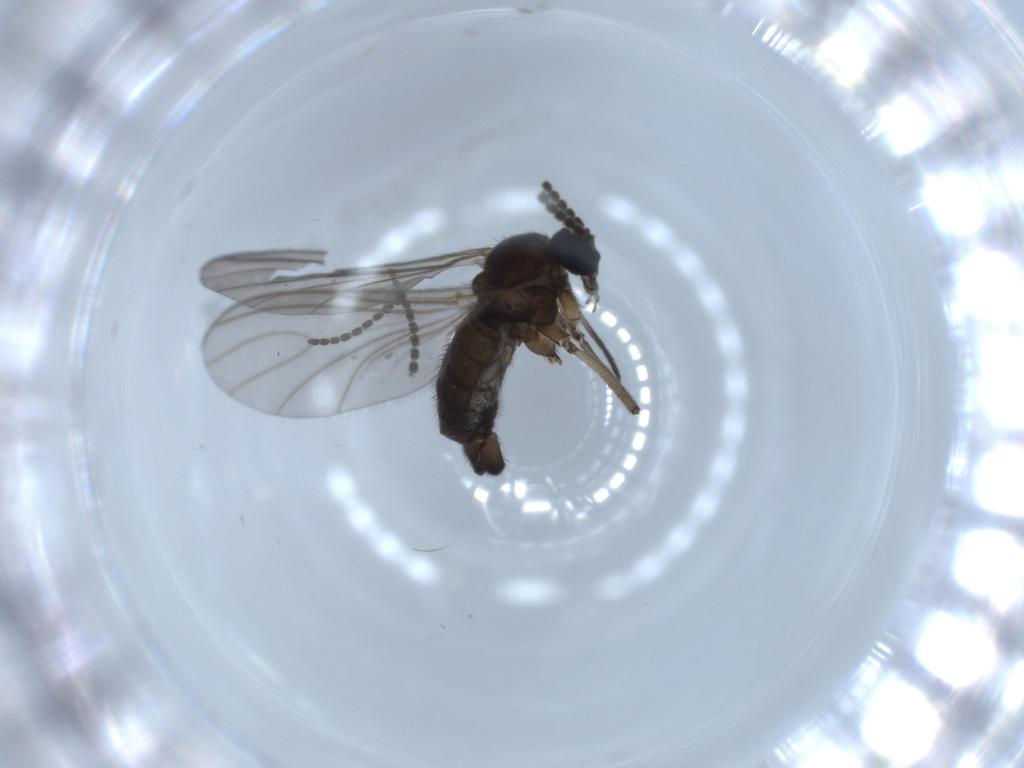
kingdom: Animalia
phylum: Arthropoda
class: Insecta
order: Diptera
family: Sciaridae
